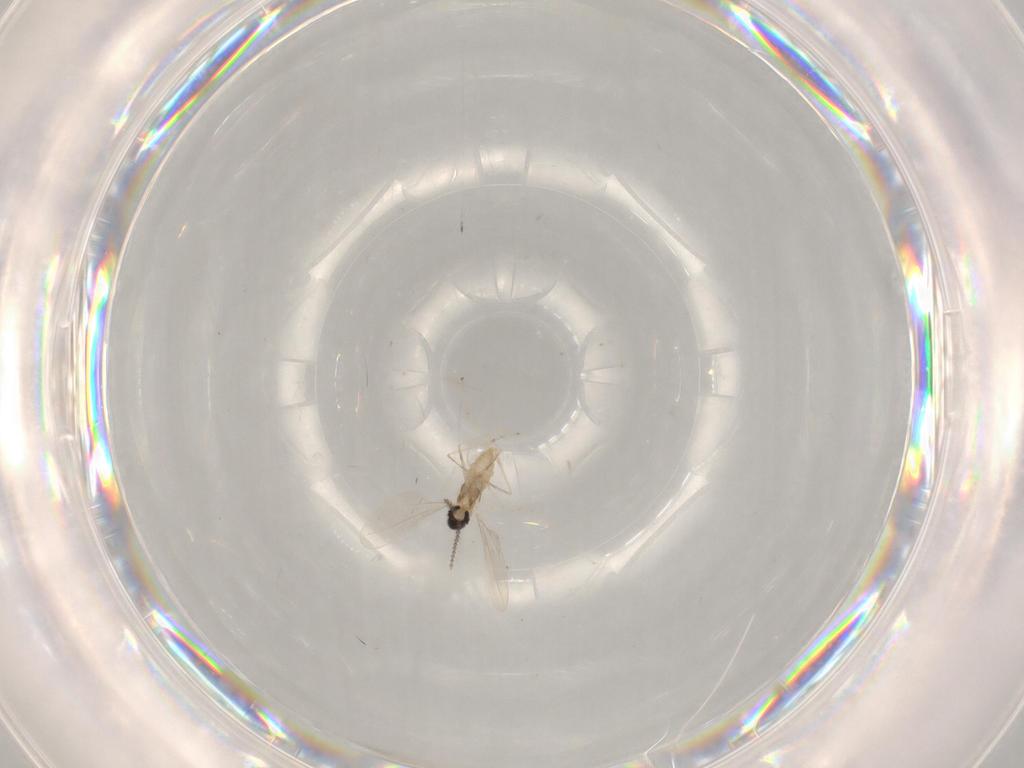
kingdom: Animalia
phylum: Arthropoda
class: Insecta
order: Diptera
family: Cecidomyiidae
